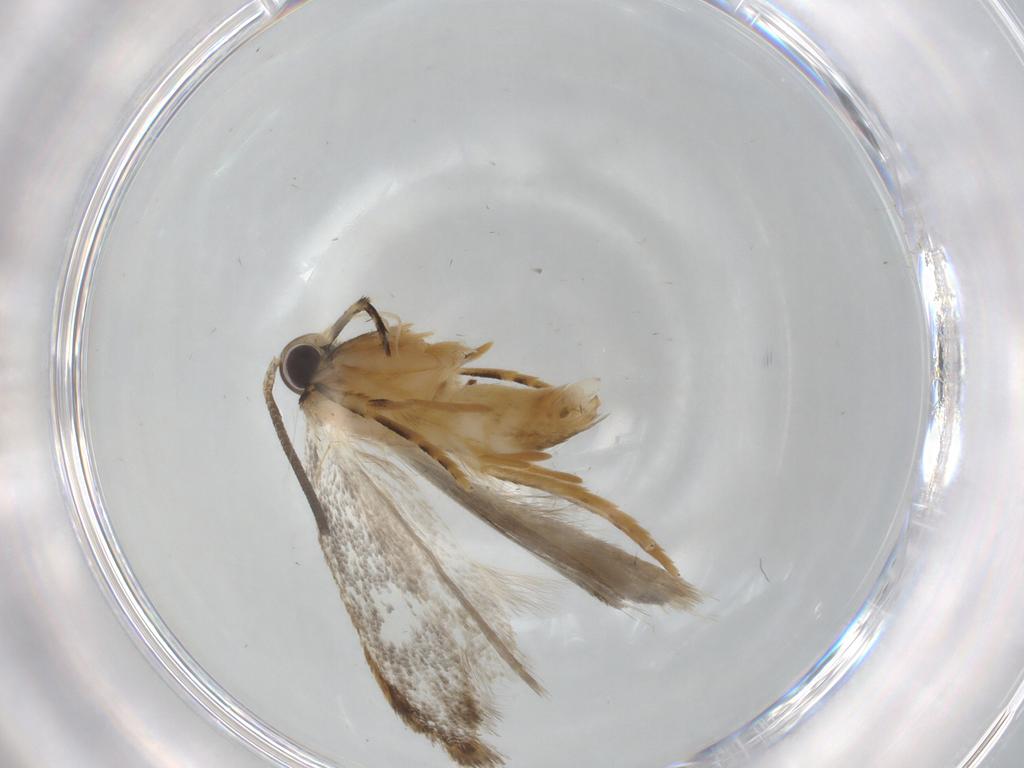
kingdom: Animalia
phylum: Arthropoda
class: Insecta
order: Lepidoptera
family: Autostichidae
